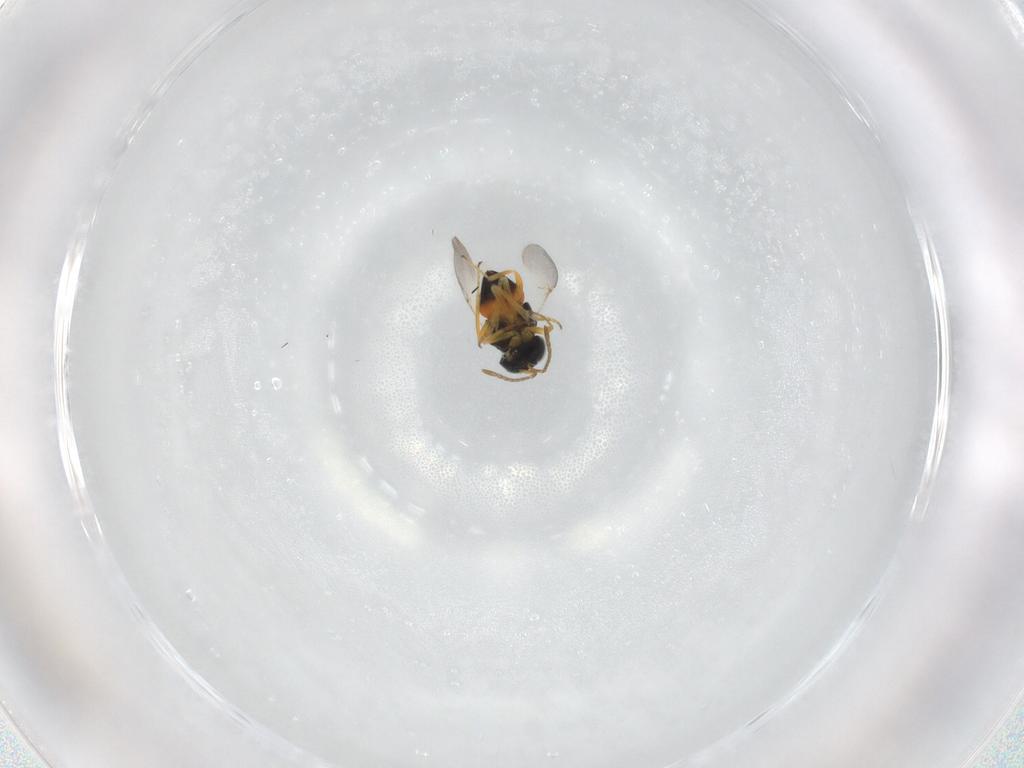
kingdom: Animalia
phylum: Arthropoda
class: Insecta
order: Hymenoptera
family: Encyrtidae
